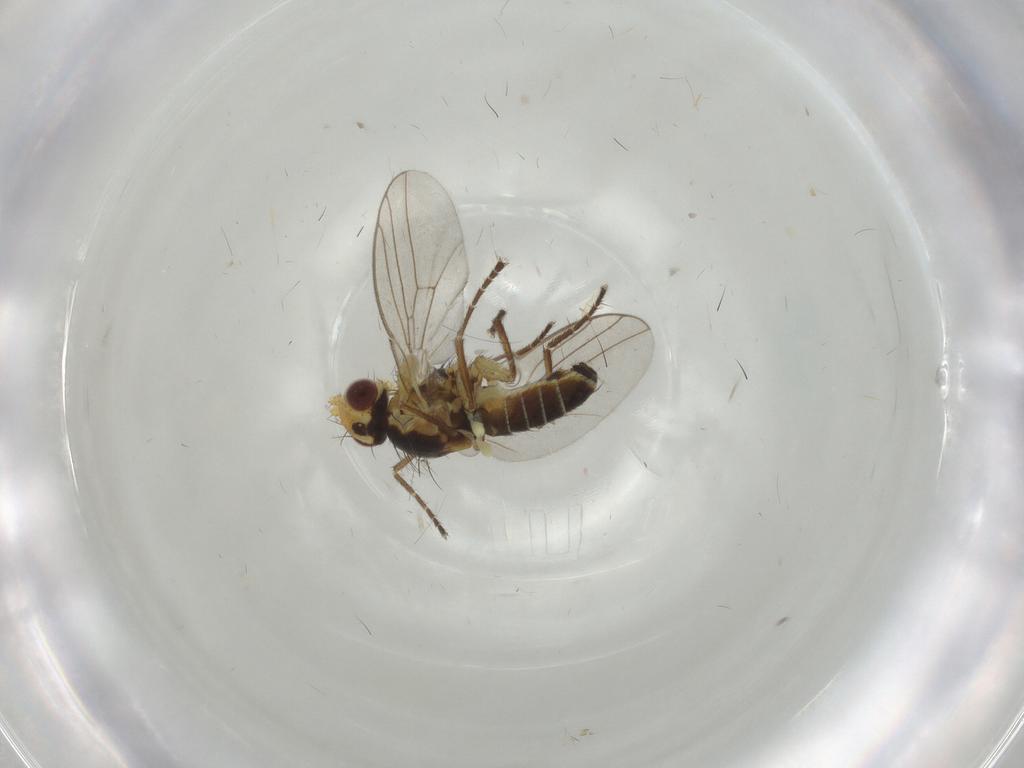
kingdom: Animalia
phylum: Arthropoda
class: Insecta
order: Diptera
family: Agromyzidae
